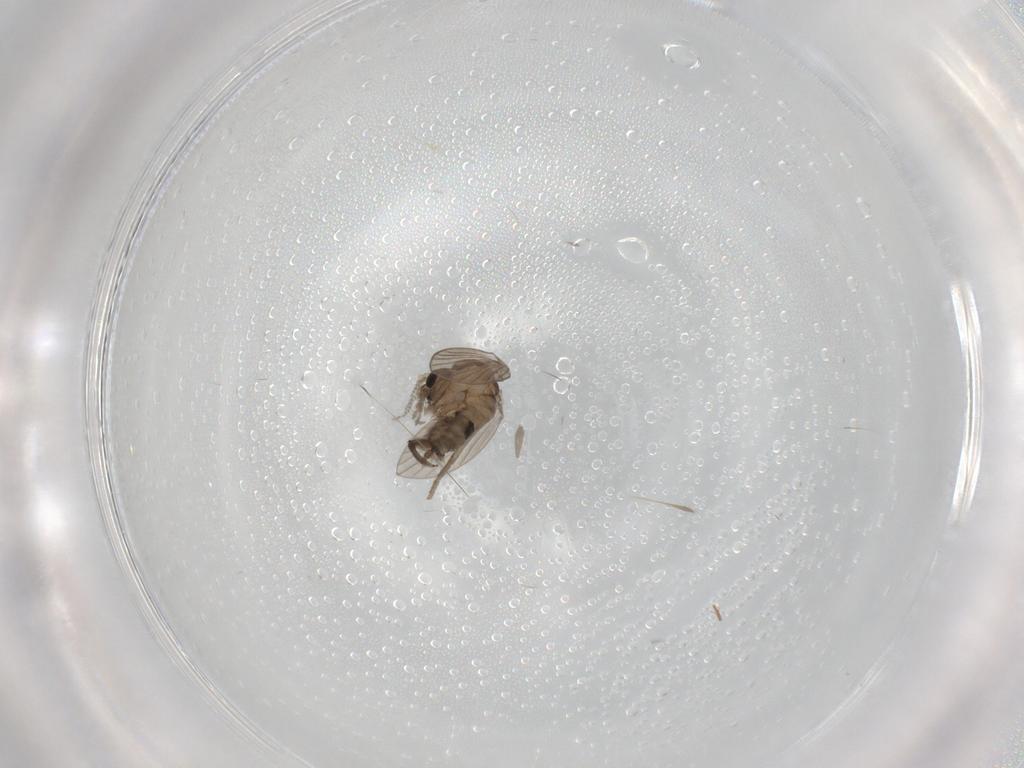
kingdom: Animalia
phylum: Arthropoda
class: Insecta
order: Diptera
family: Psychodidae
